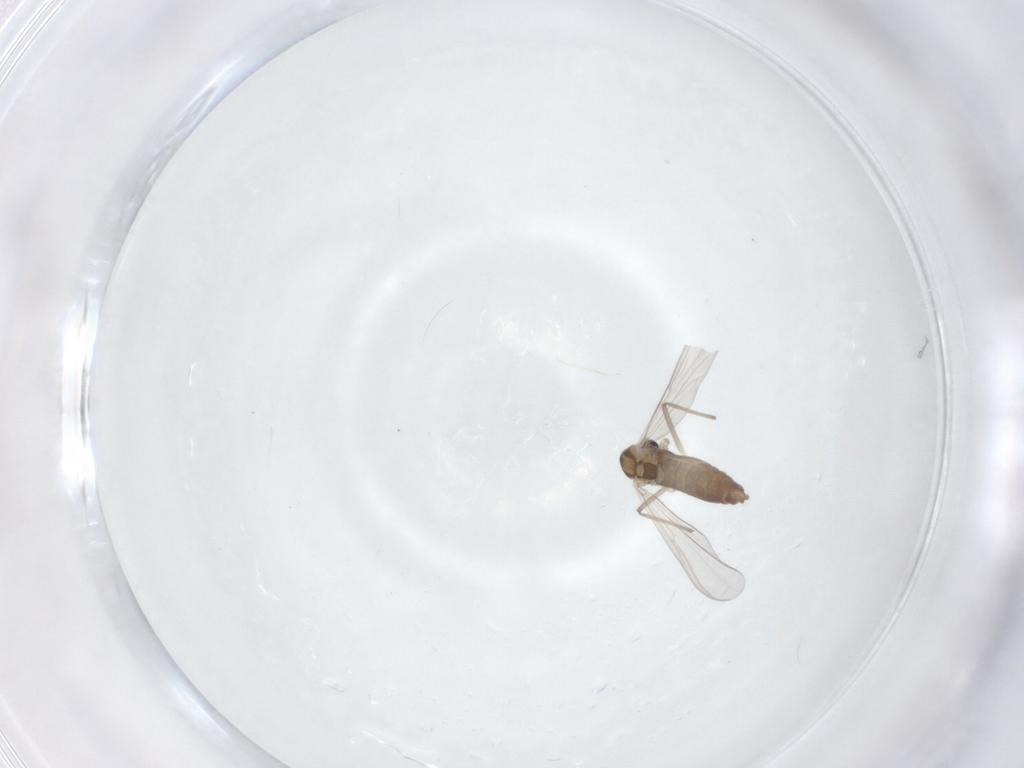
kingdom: Animalia
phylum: Arthropoda
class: Insecta
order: Diptera
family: Chironomidae
